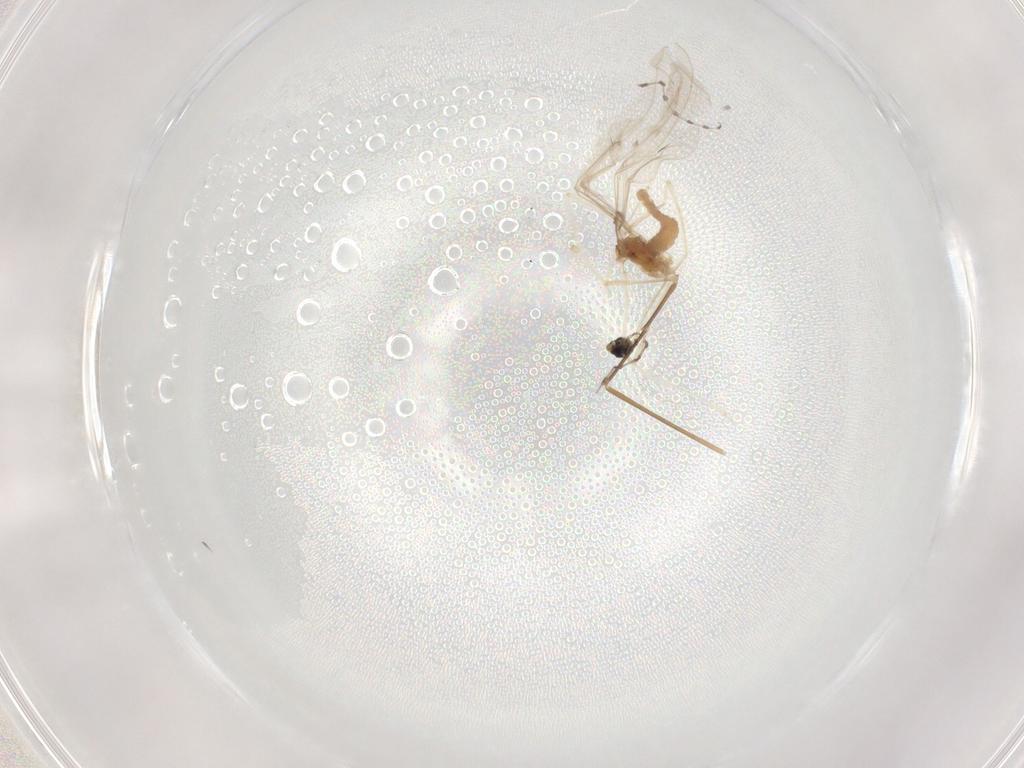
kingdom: Animalia
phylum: Arthropoda
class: Insecta
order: Diptera
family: Cecidomyiidae
